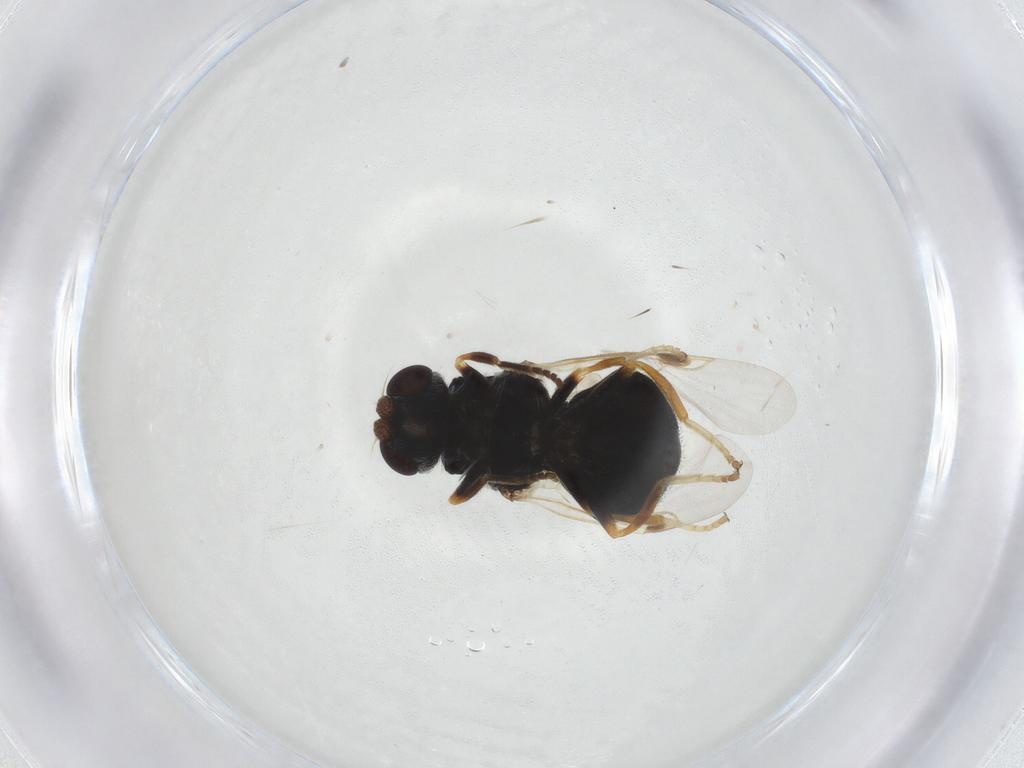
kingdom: Animalia
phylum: Arthropoda
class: Insecta
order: Diptera
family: Stratiomyidae
